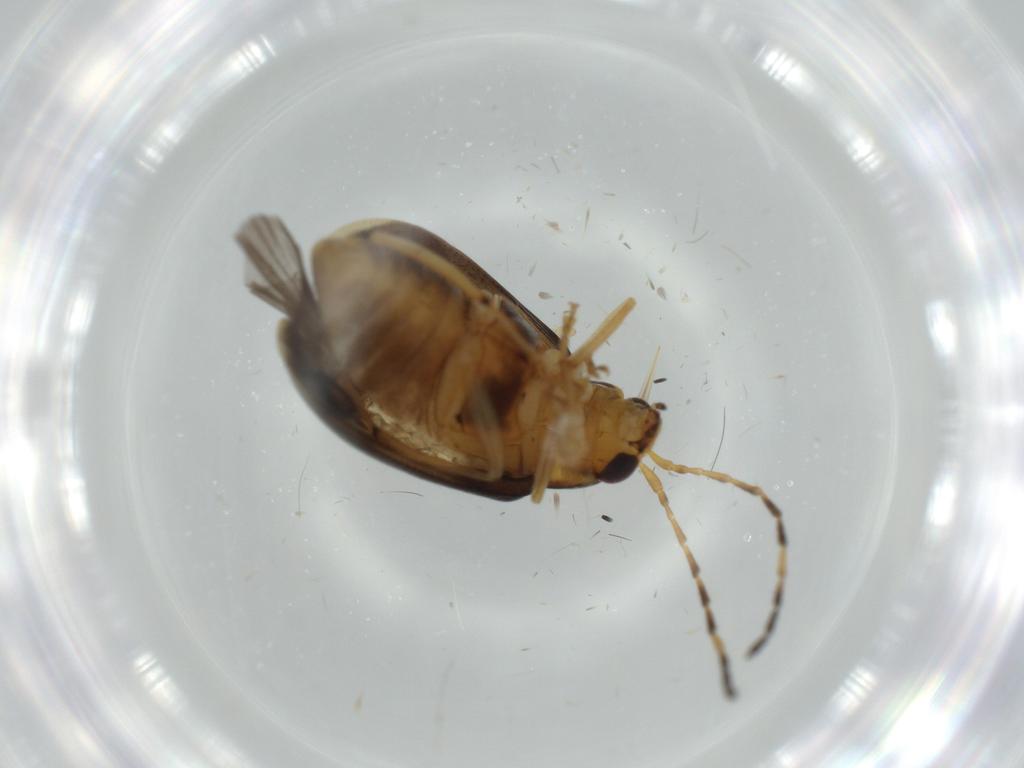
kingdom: Animalia
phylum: Arthropoda
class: Insecta
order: Coleoptera
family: Chrysomelidae
